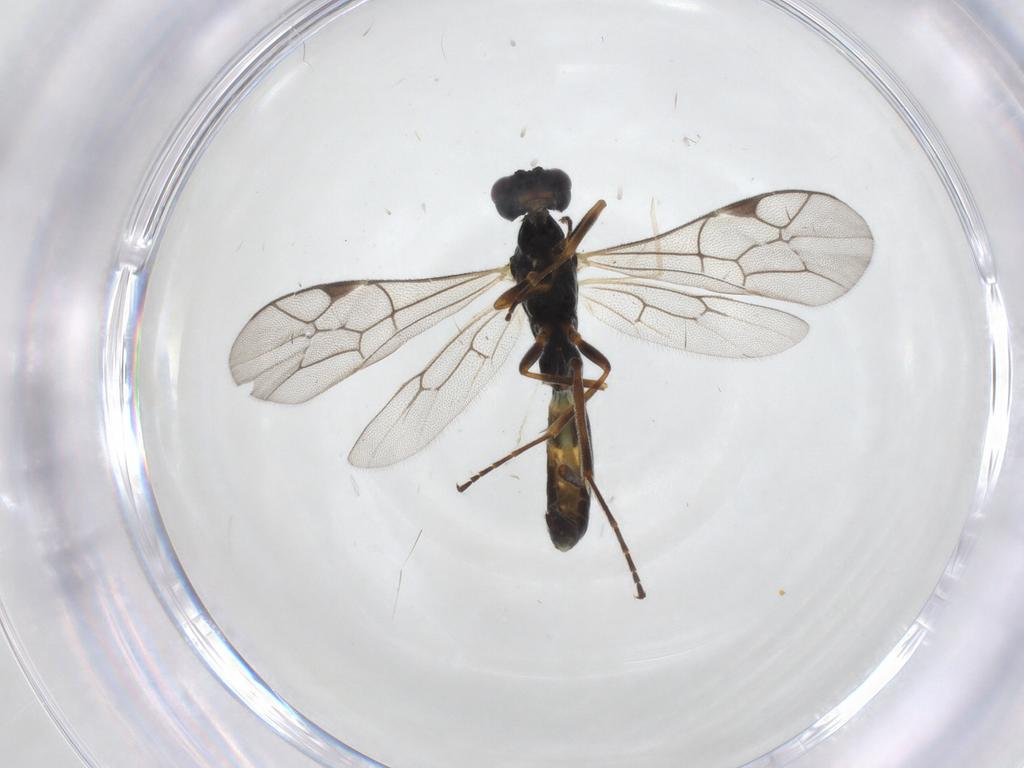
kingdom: Animalia
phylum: Arthropoda
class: Insecta
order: Hymenoptera
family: Ichneumonidae
